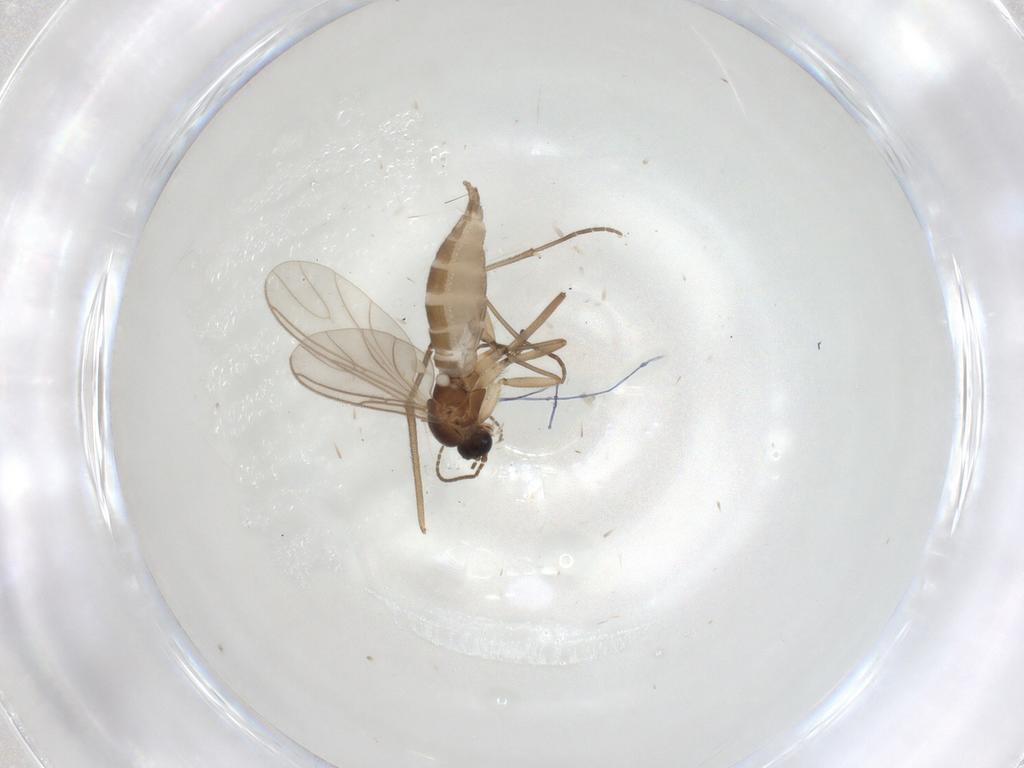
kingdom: Animalia
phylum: Arthropoda
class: Insecta
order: Diptera
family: Sciaridae
